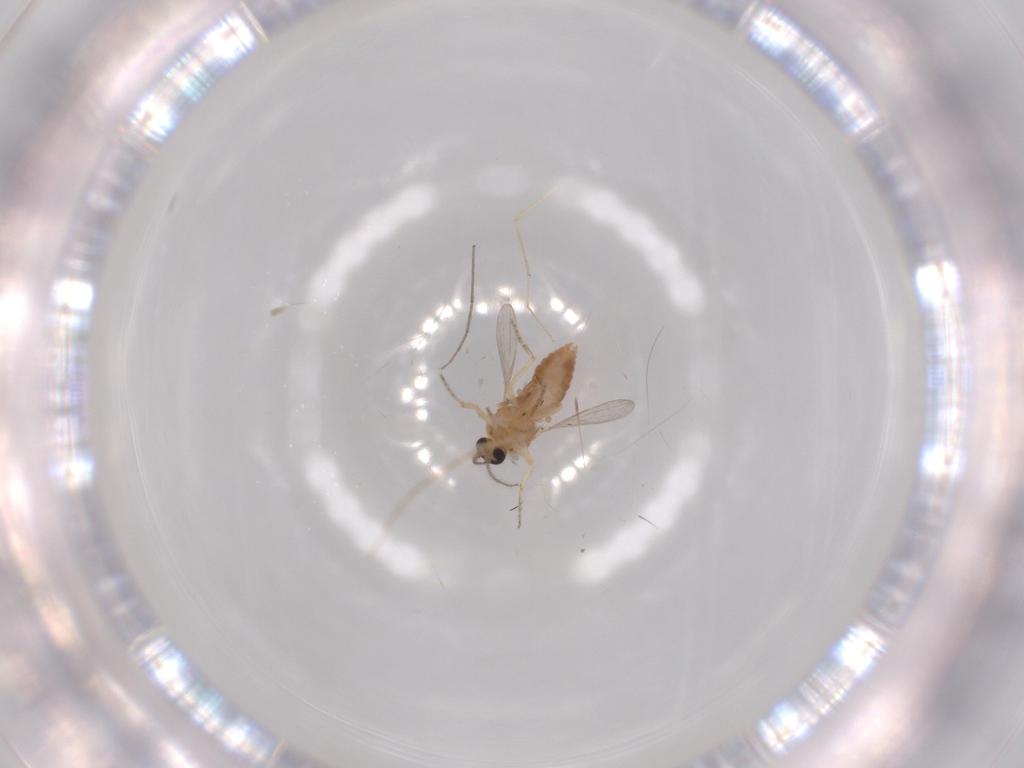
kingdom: Animalia
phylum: Arthropoda
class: Insecta
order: Diptera
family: Ceratopogonidae
